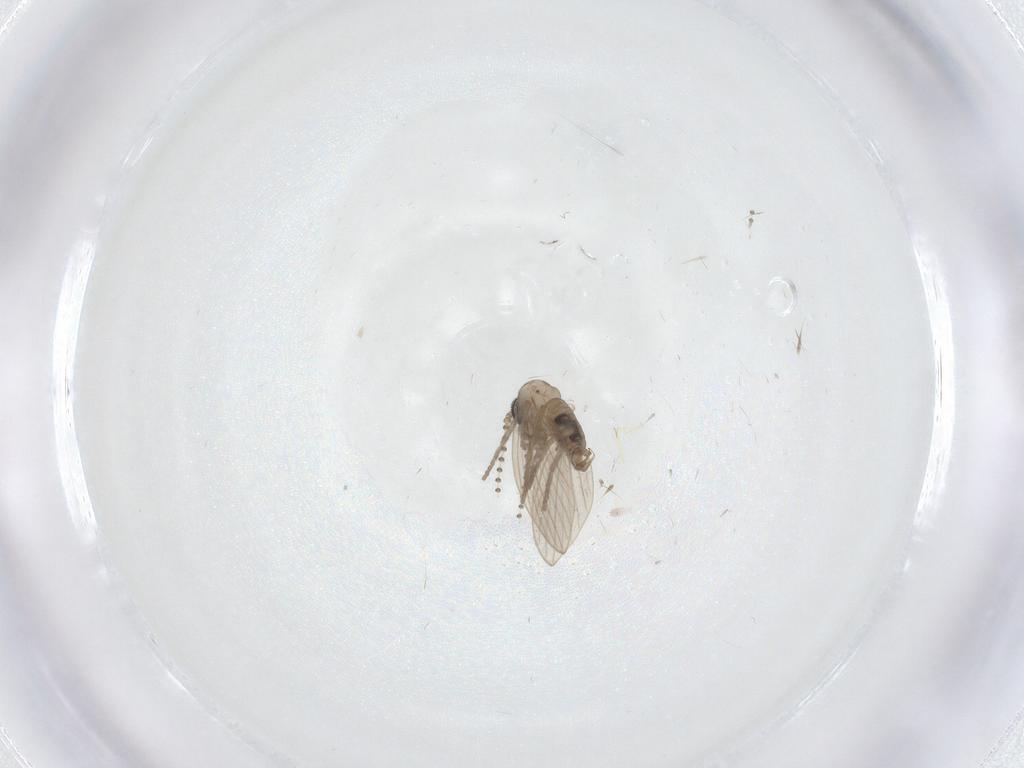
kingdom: Animalia
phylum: Arthropoda
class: Insecta
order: Diptera
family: Psychodidae
